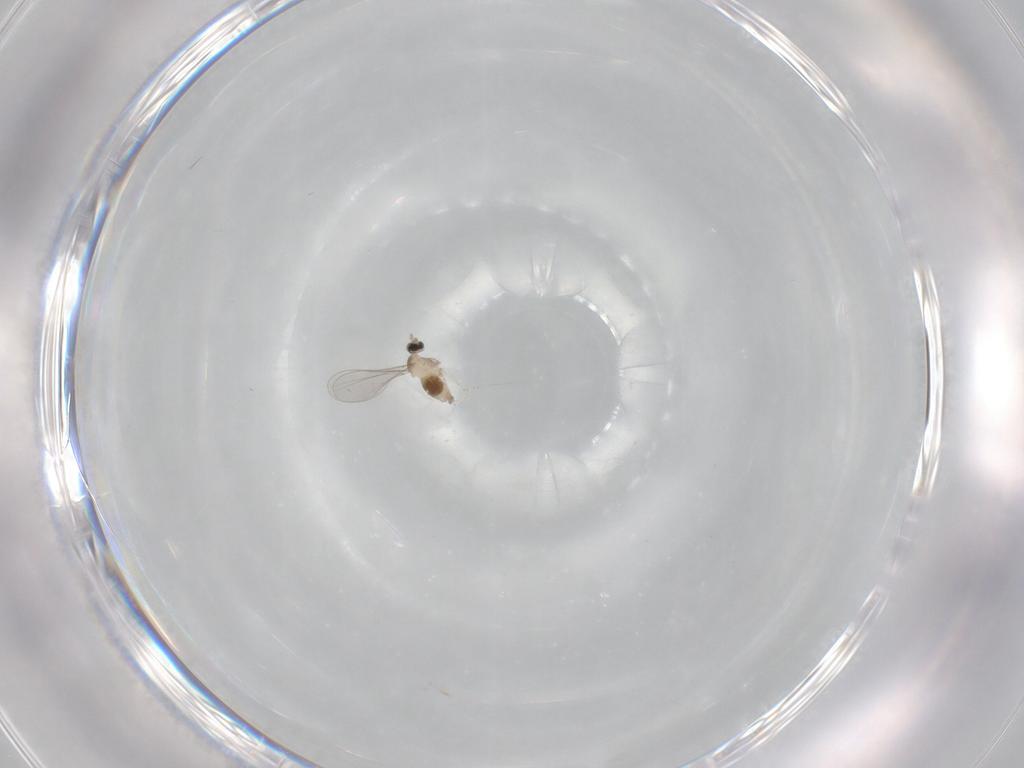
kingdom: Animalia
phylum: Arthropoda
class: Insecta
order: Diptera
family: Cecidomyiidae
